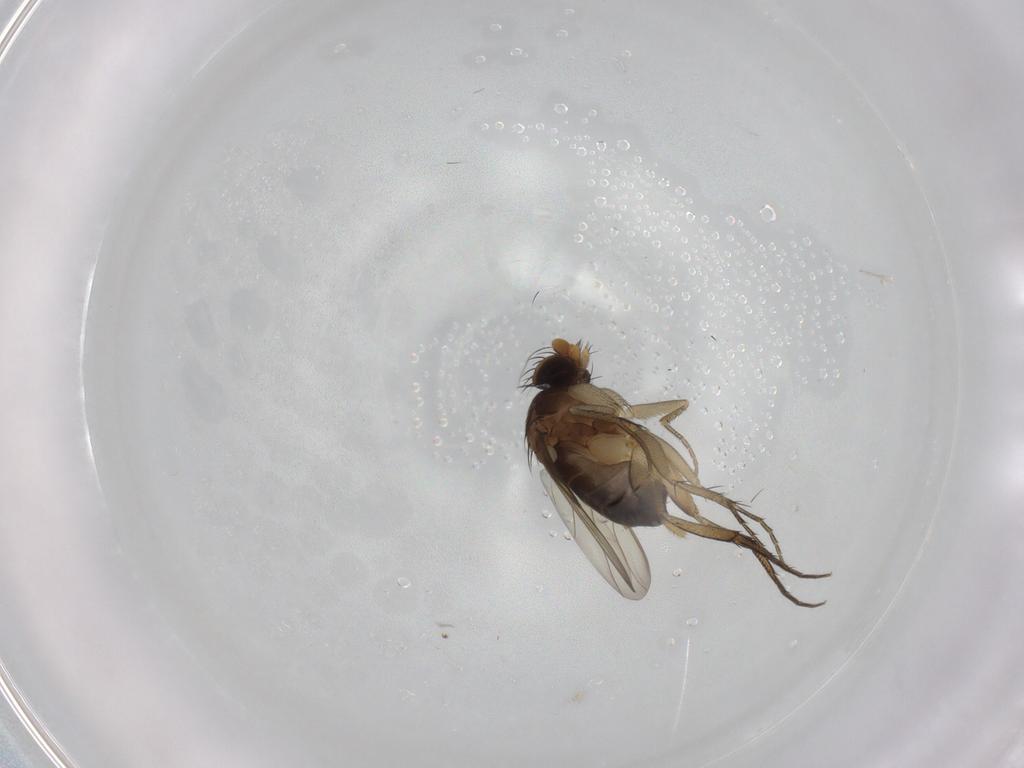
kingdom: Animalia
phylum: Arthropoda
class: Insecta
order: Diptera
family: Phoridae
